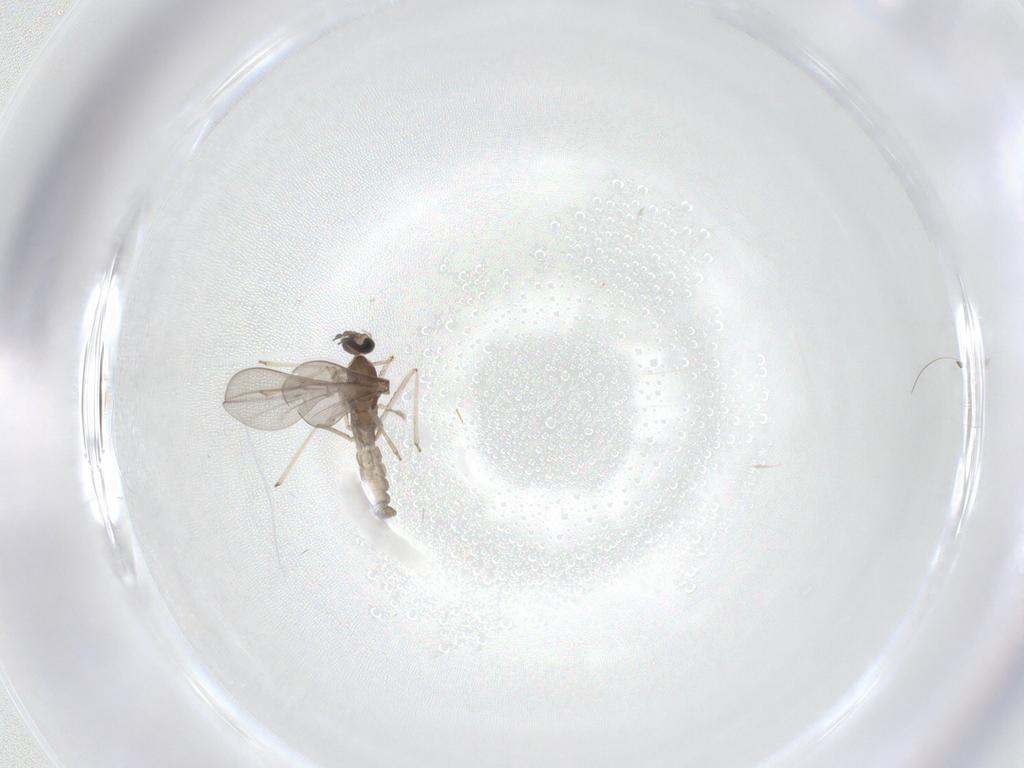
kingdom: Animalia
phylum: Arthropoda
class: Insecta
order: Diptera
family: Cecidomyiidae
